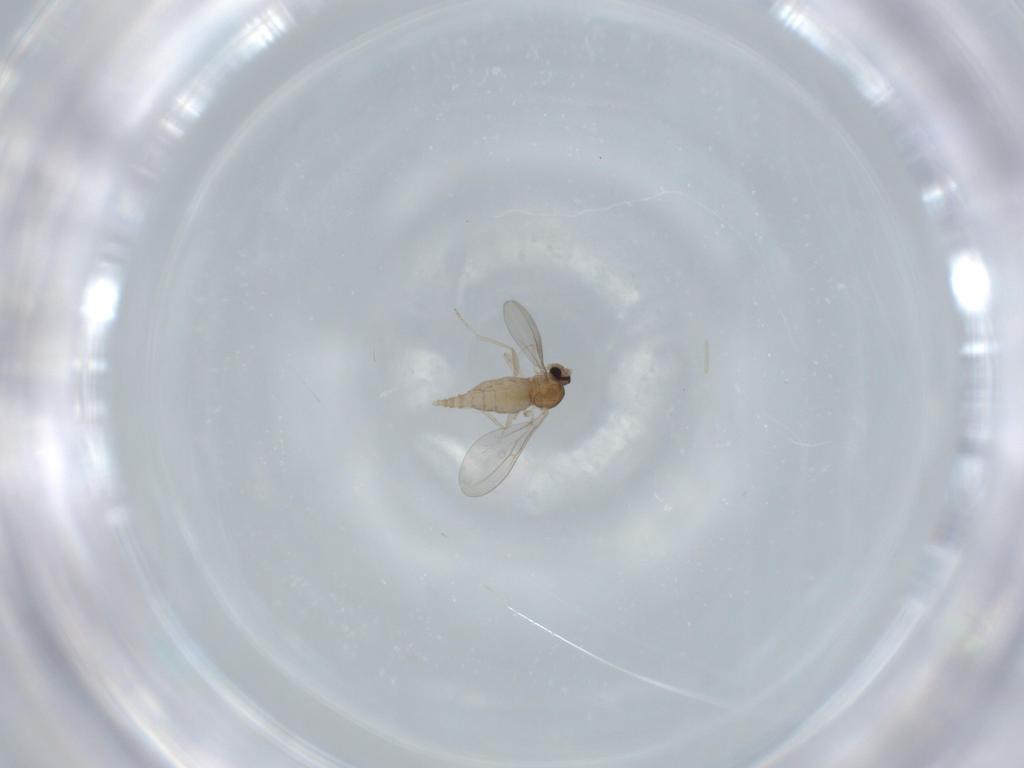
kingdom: Animalia
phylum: Arthropoda
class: Insecta
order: Diptera
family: Cecidomyiidae
